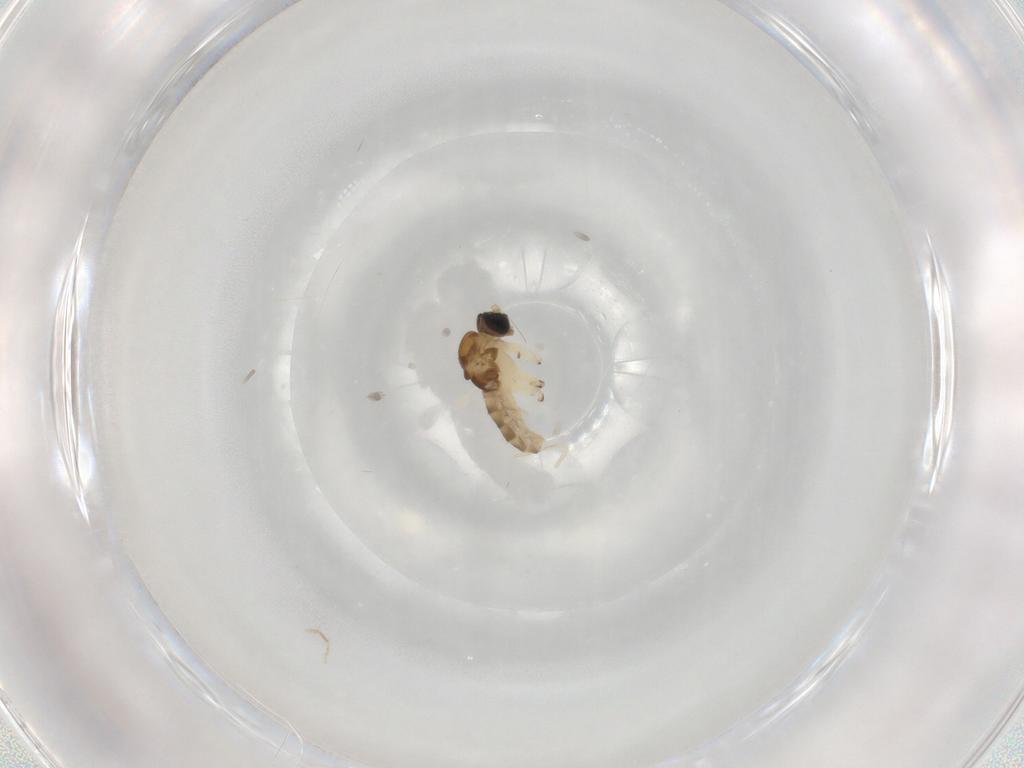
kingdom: Animalia
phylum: Arthropoda
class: Insecta
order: Diptera
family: Sciaridae
